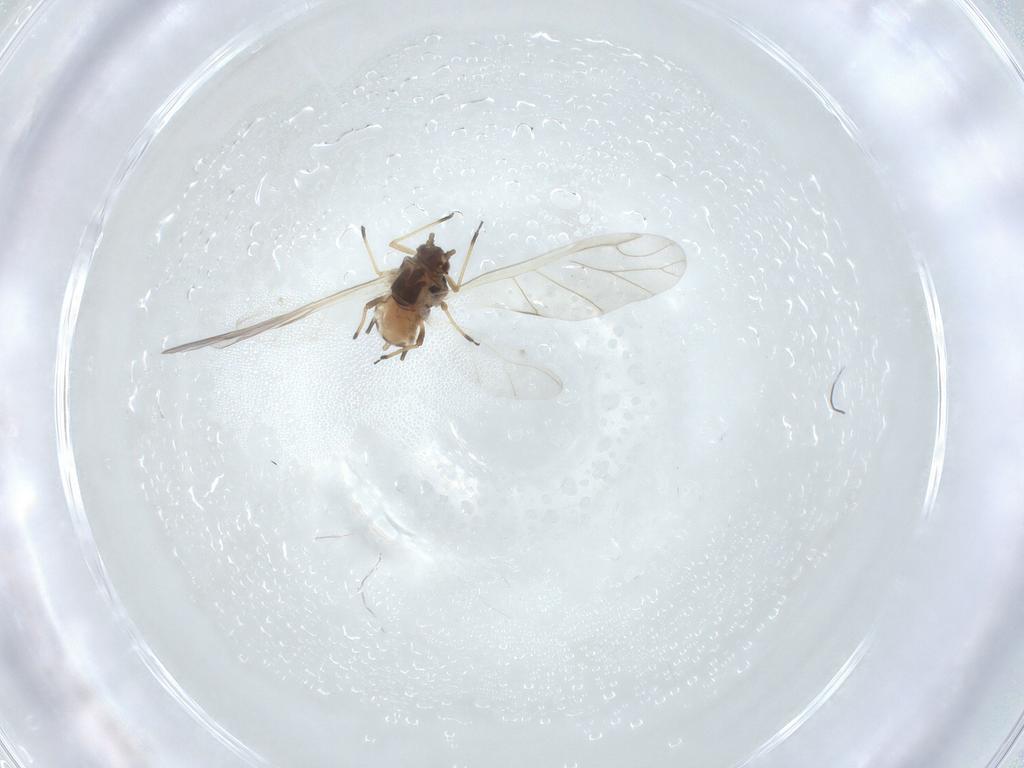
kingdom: Animalia
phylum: Arthropoda
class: Insecta
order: Hemiptera
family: Aphididae
